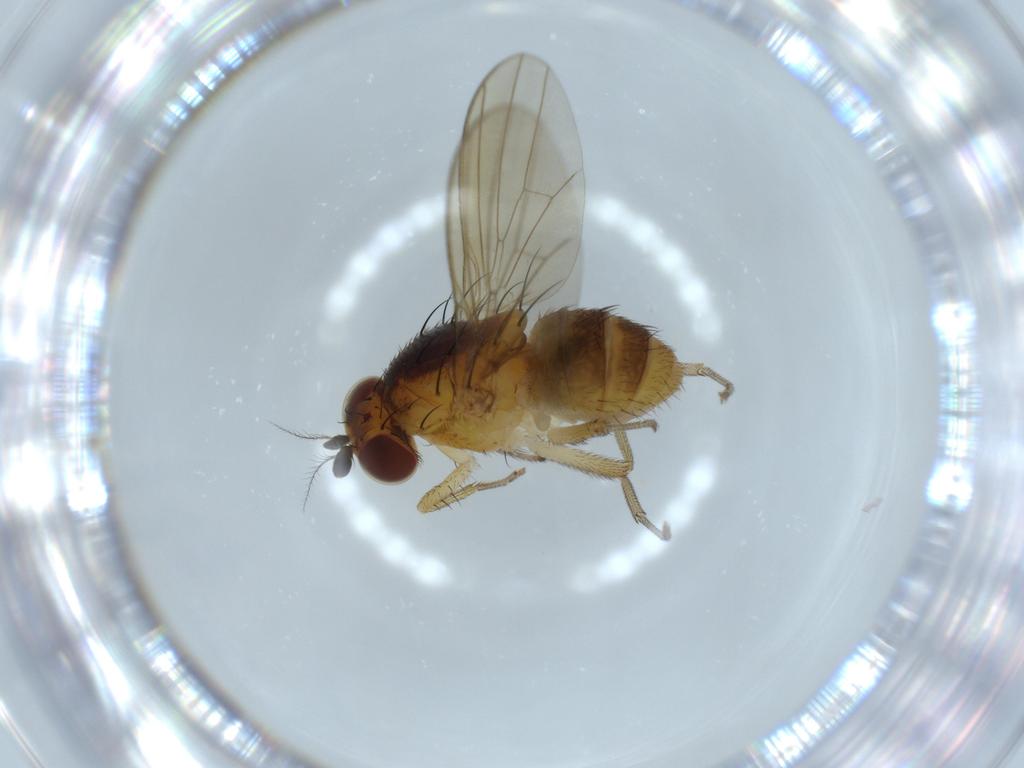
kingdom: Animalia
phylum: Arthropoda
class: Insecta
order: Diptera
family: Lauxaniidae
